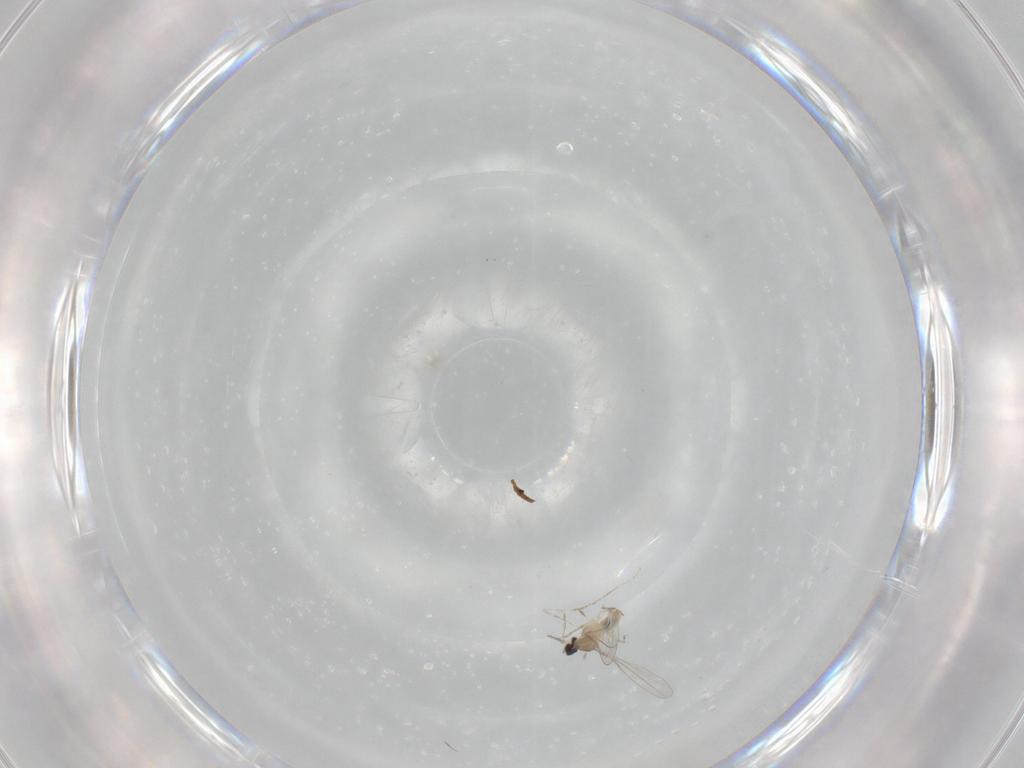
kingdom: Animalia
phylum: Arthropoda
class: Insecta
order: Diptera
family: Cecidomyiidae
